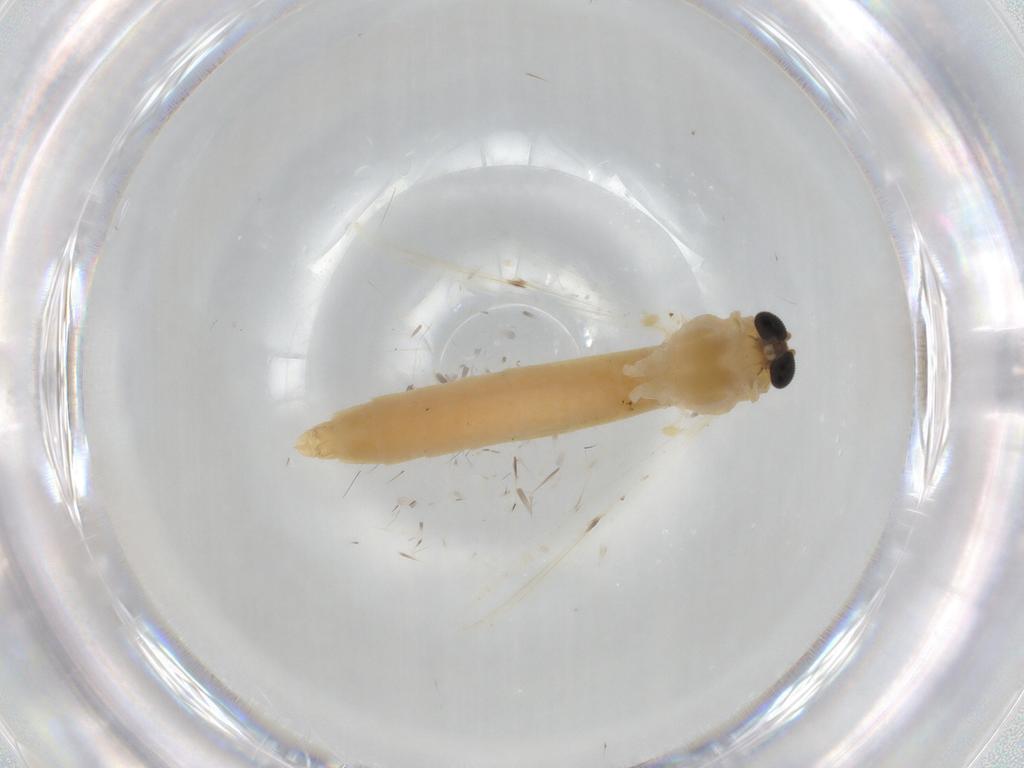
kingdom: Animalia
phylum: Arthropoda
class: Insecta
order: Diptera
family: Chironomidae
